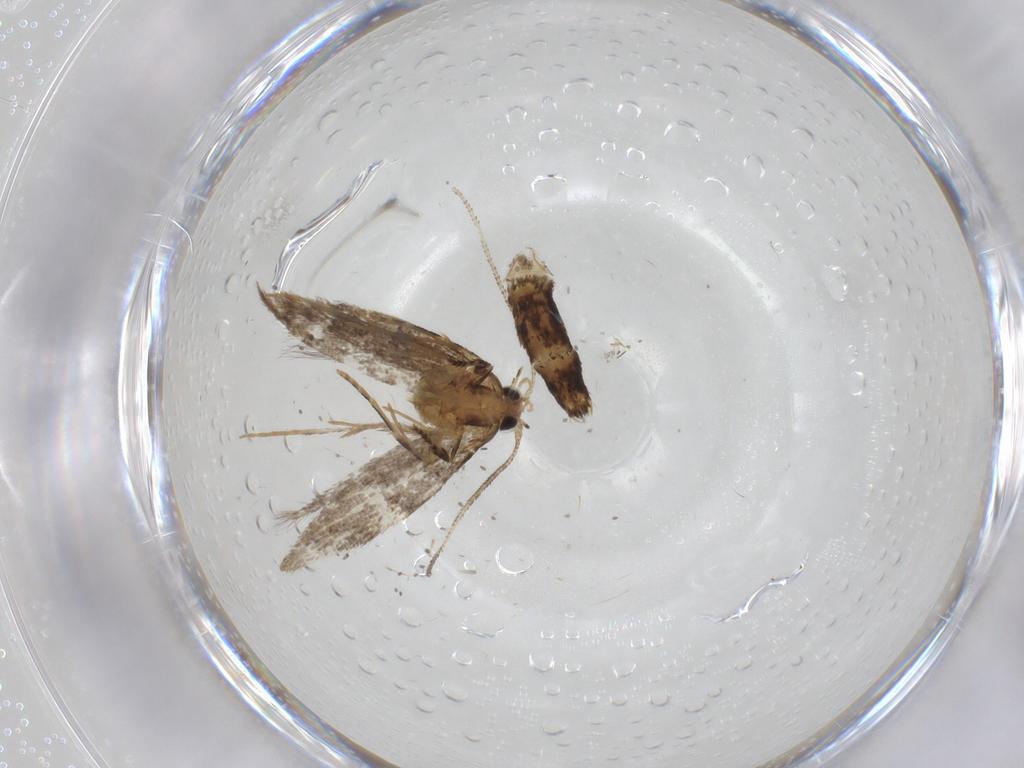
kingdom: Animalia
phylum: Arthropoda
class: Insecta
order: Lepidoptera
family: Tineidae
